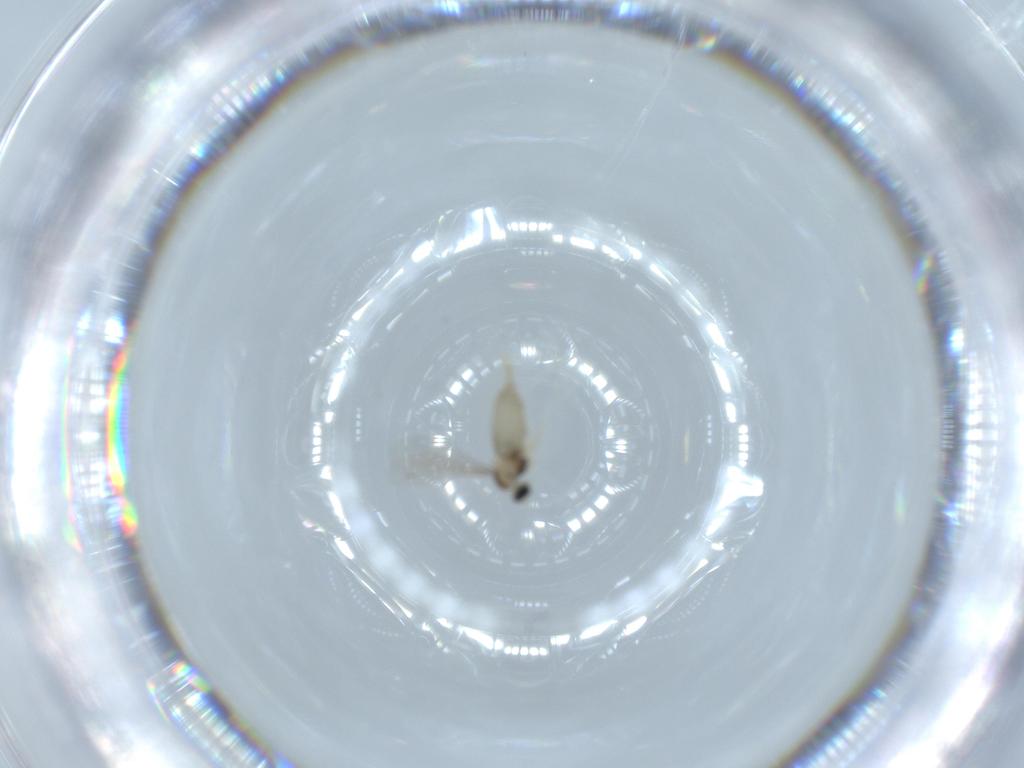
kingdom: Animalia
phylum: Arthropoda
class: Insecta
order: Diptera
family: Cecidomyiidae
